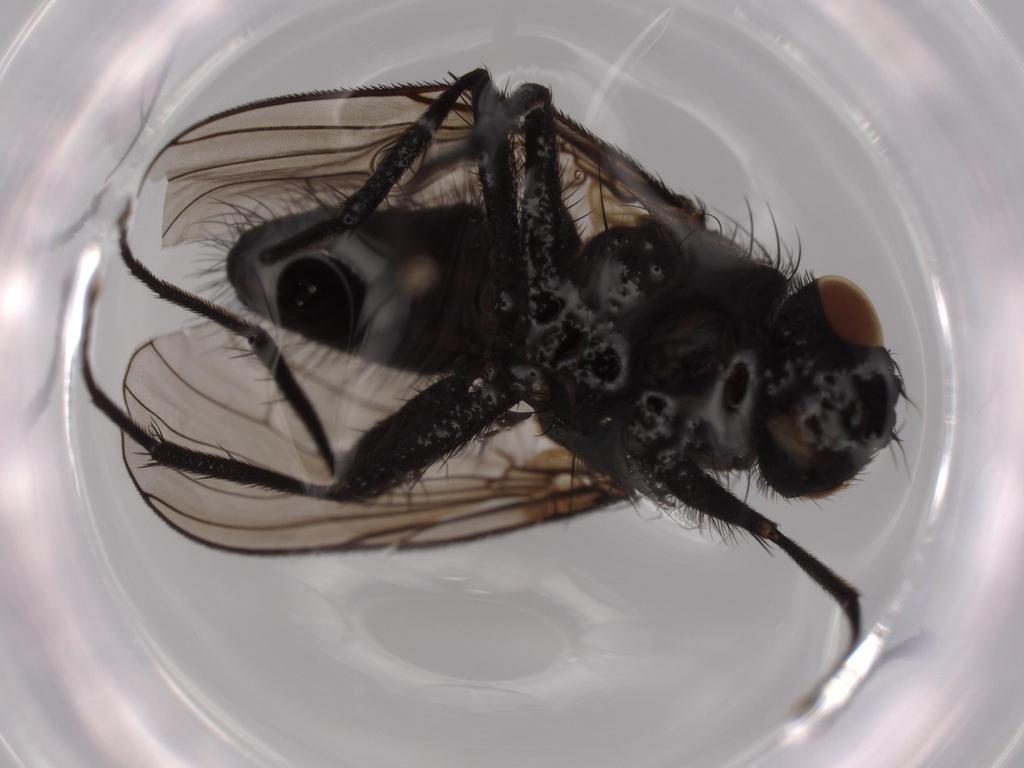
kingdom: Animalia
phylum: Arthropoda
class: Insecta
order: Diptera
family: Muscidae
